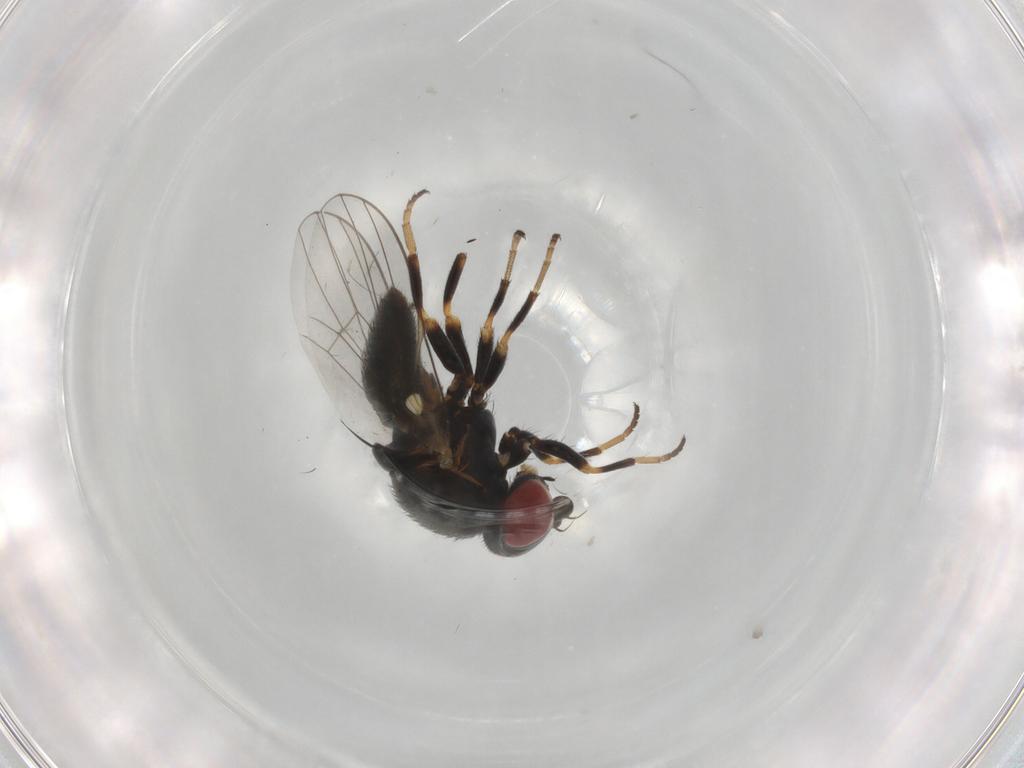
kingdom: Animalia
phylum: Arthropoda
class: Insecta
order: Diptera
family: Chamaemyiidae
